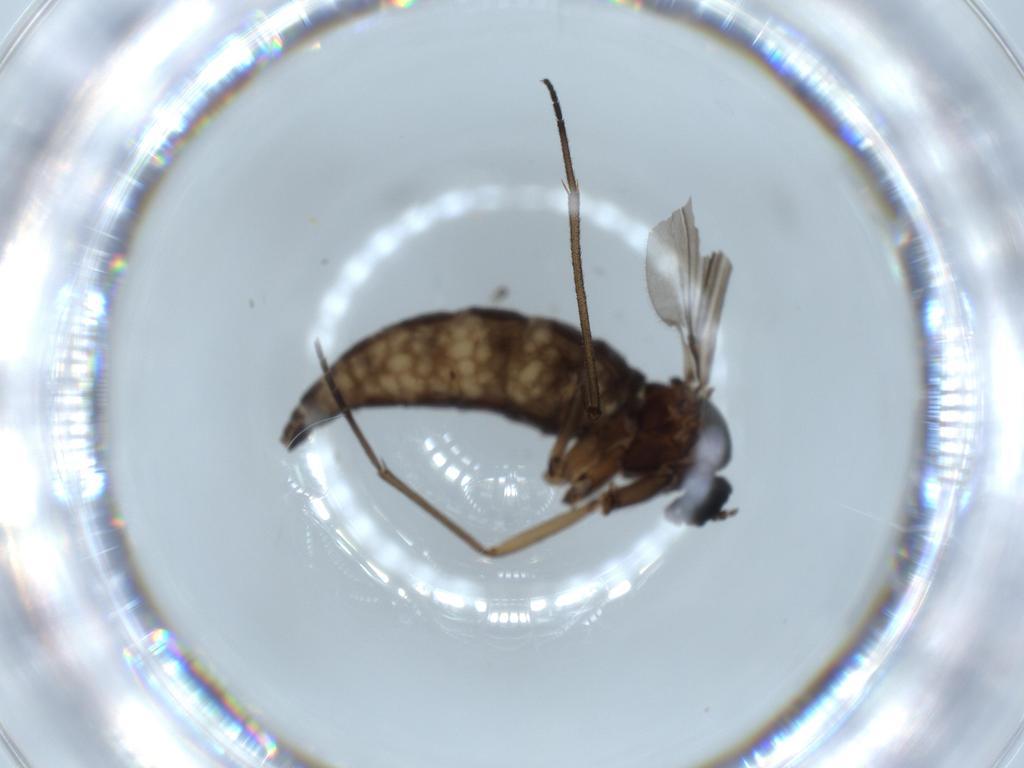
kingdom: Animalia
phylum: Arthropoda
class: Insecta
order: Diptera
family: Sciaridae
